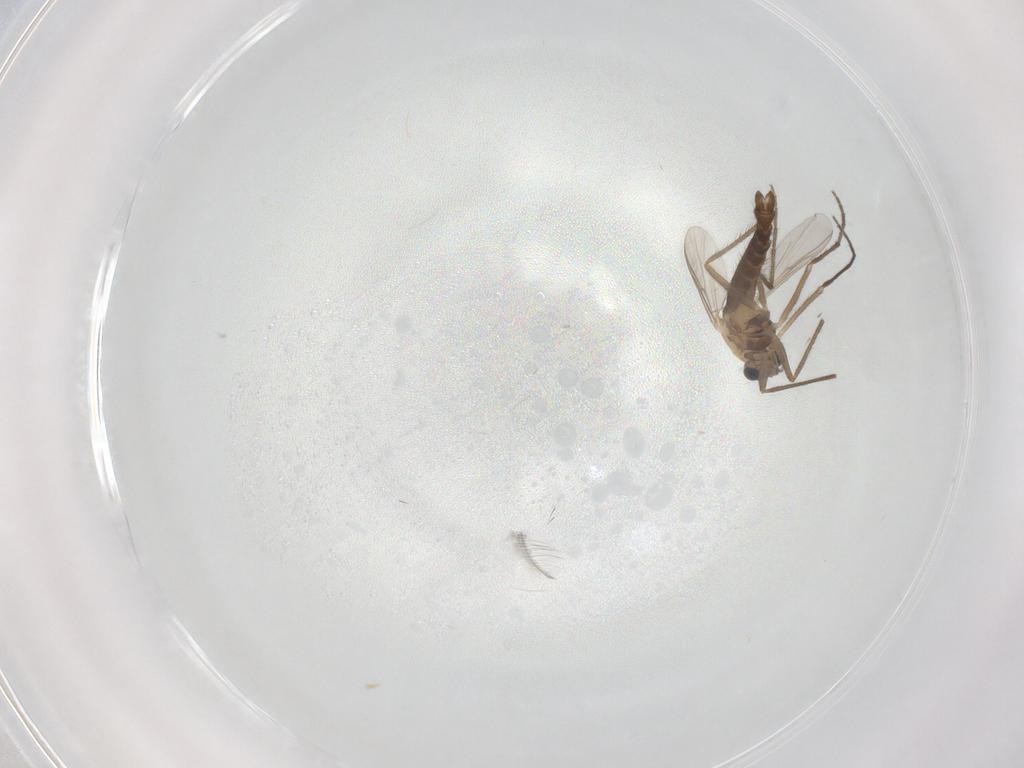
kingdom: Animalia
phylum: Arthropoda
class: Insecta
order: Diptera
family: Chironomidae
